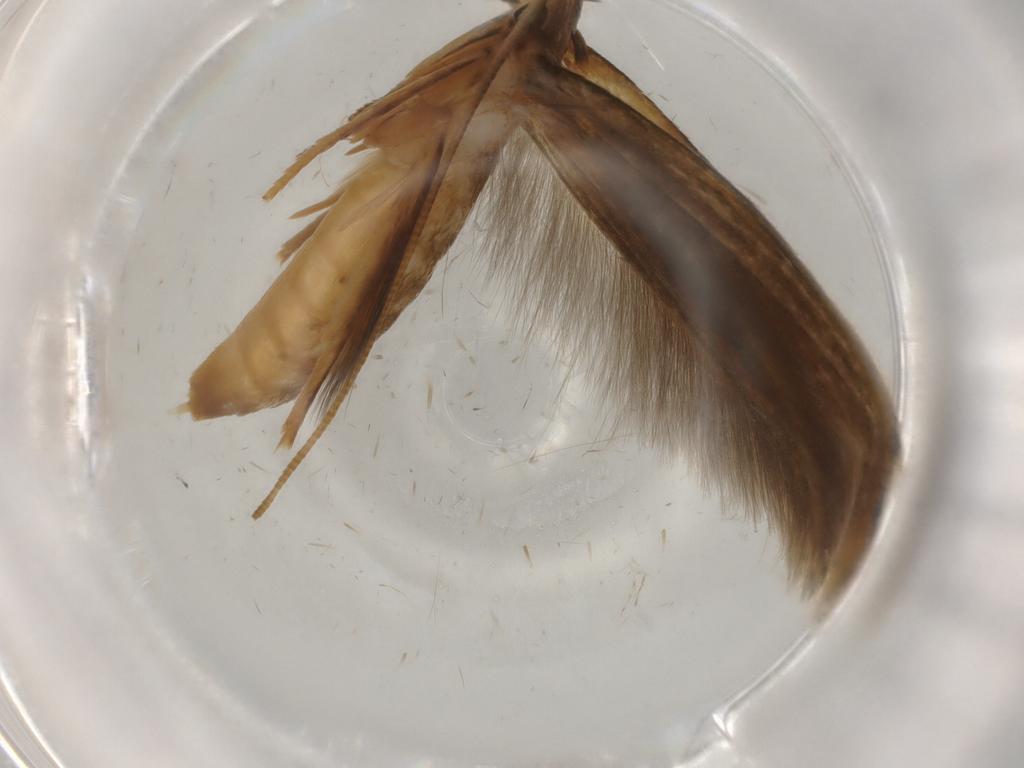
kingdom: Animalia
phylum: Arthropoda
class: Insecta
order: Lepidoptera
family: Tineidae
